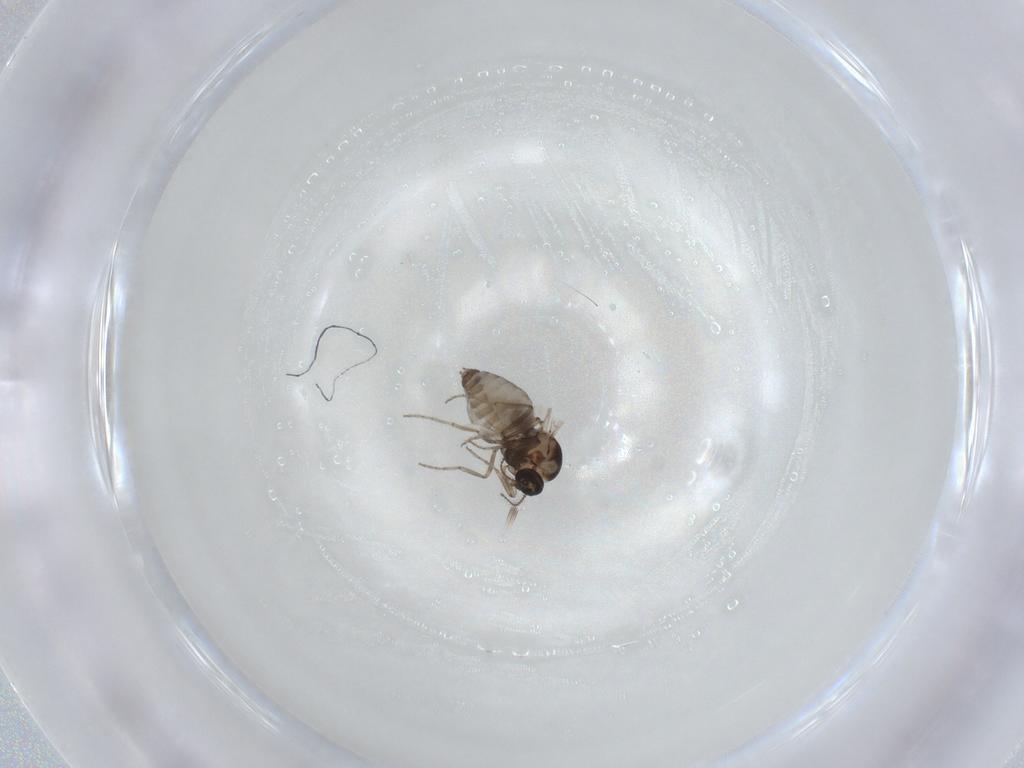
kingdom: Animalia
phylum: Arthropoda
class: Insecta
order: Diptera
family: Ceratopogonidae
